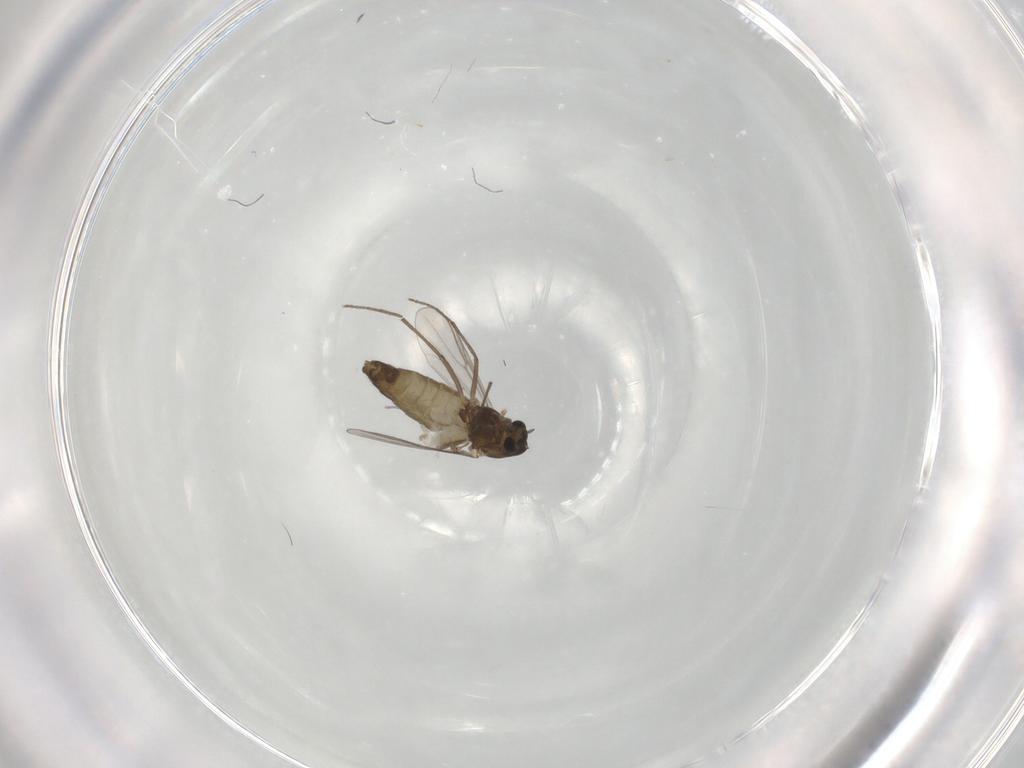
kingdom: Animalia
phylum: Arthropoda
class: Insecta
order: Diptera
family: Chironomidae
